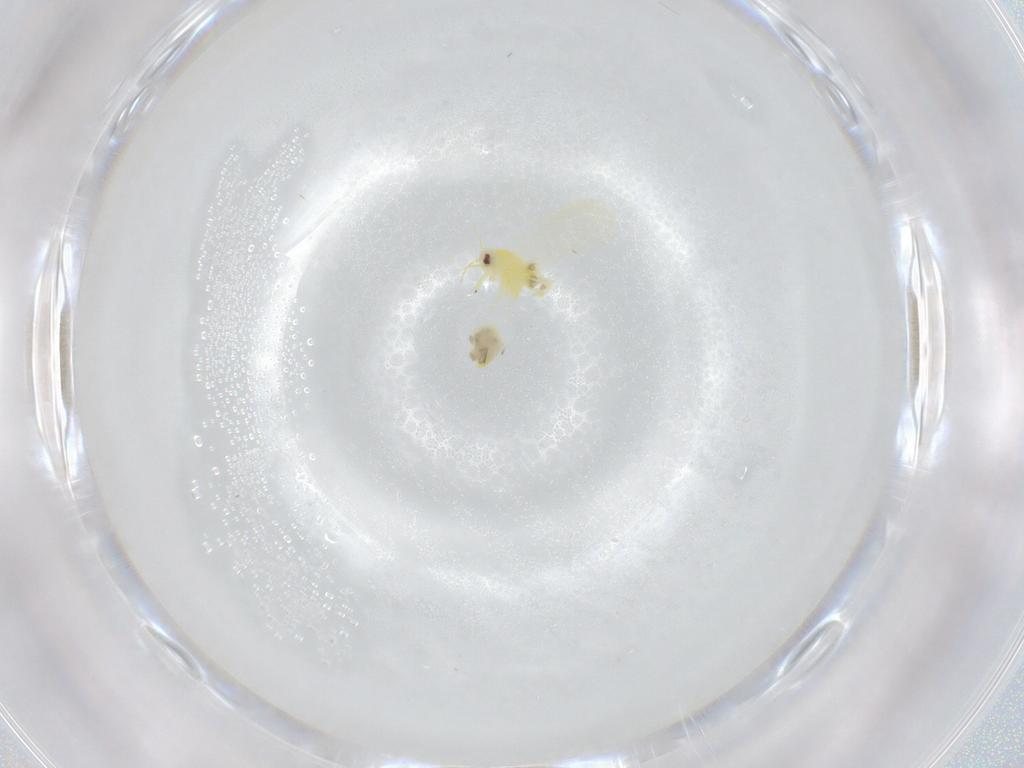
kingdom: Animalia
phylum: Arthropoda
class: Insecta
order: Hemiptera
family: Aleyrodidae
